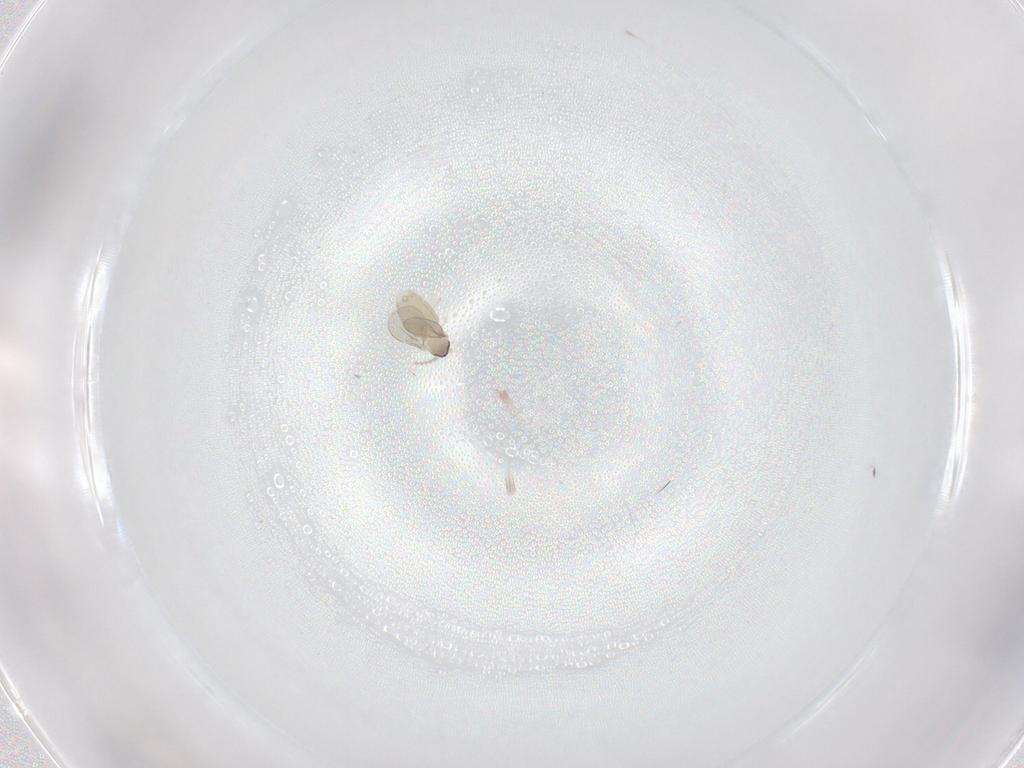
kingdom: Animalia
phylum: Arthropoda
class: Insecta
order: Diptera
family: Cecidomyiidae
